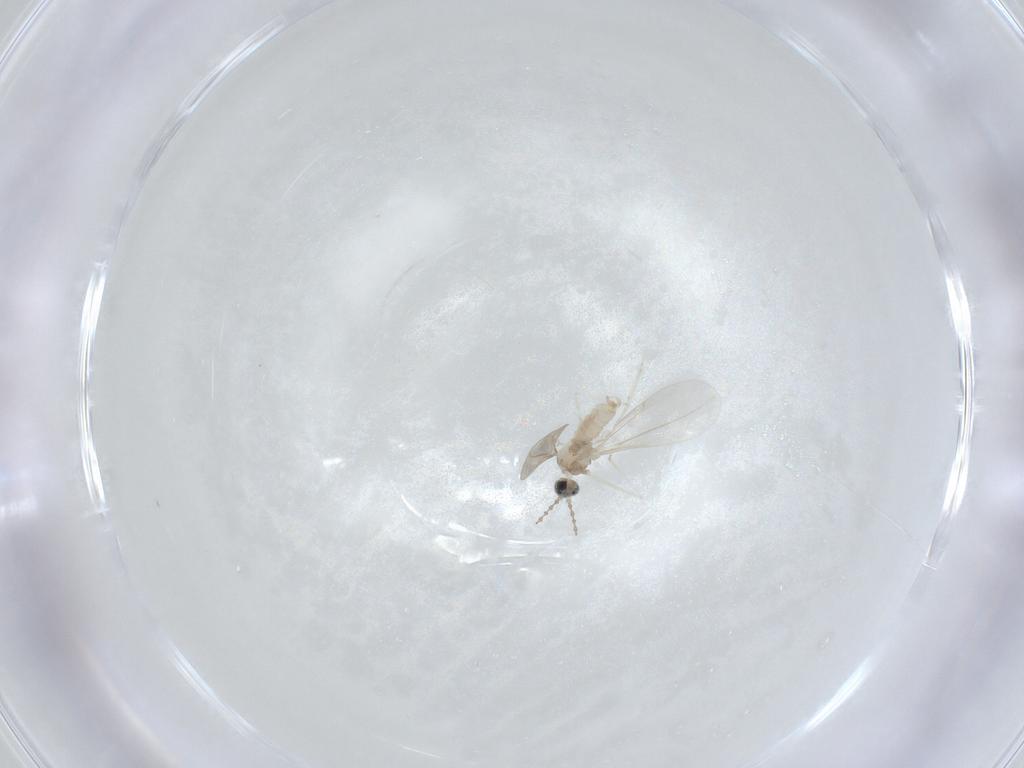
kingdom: Animalia
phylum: Arthropoda
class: Insecta
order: Diptera
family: Cecidomyiidae
